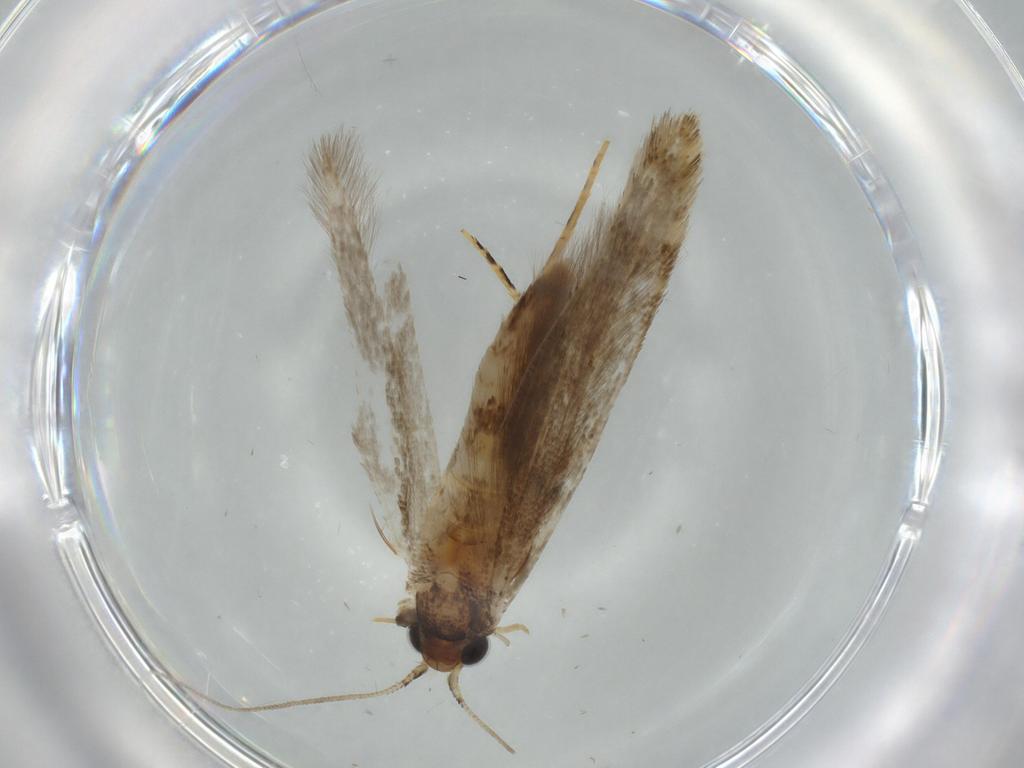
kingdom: Animalia
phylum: Arthropoda
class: Insecta
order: Lepidoptera
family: Tineidae
